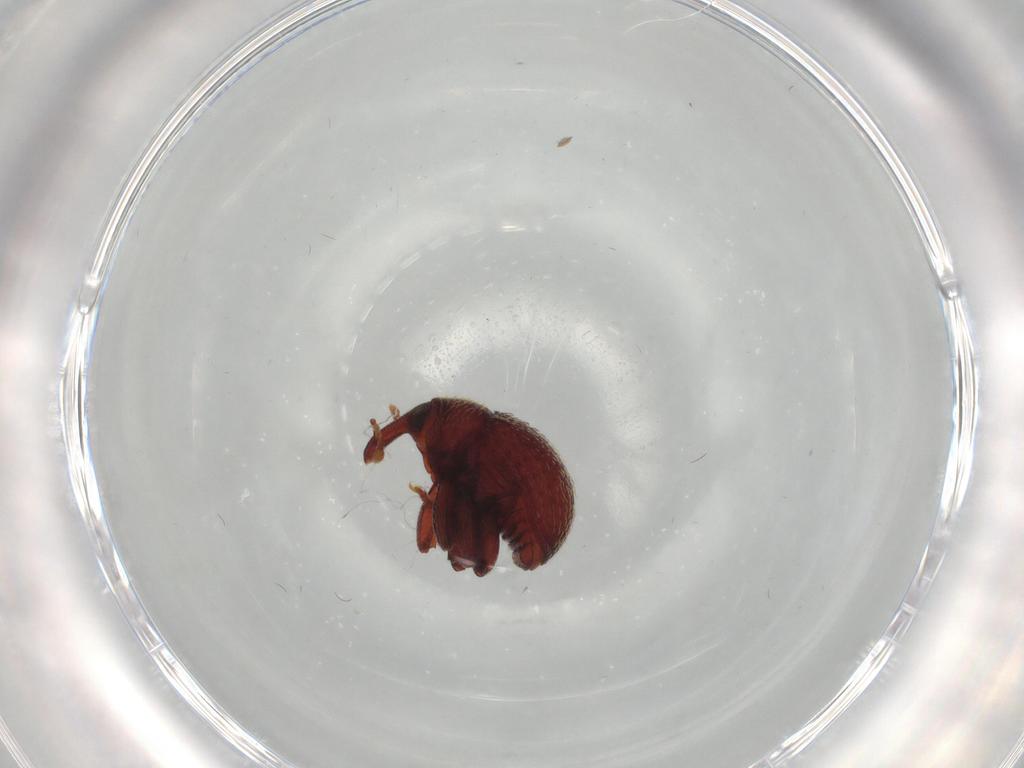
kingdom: Animalia
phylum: Arthropoda
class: Insecta
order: Coleoptera
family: Curculionidae
